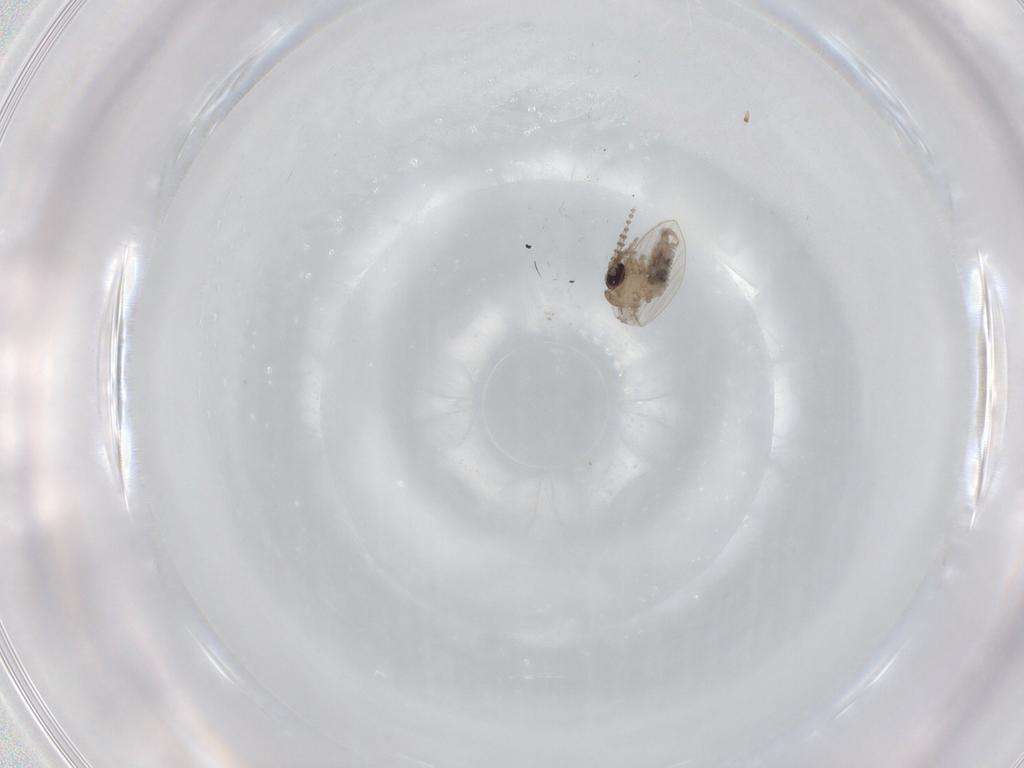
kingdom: Animalia
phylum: Arthropoda
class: Insecta
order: Diptera
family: Psychodidae
